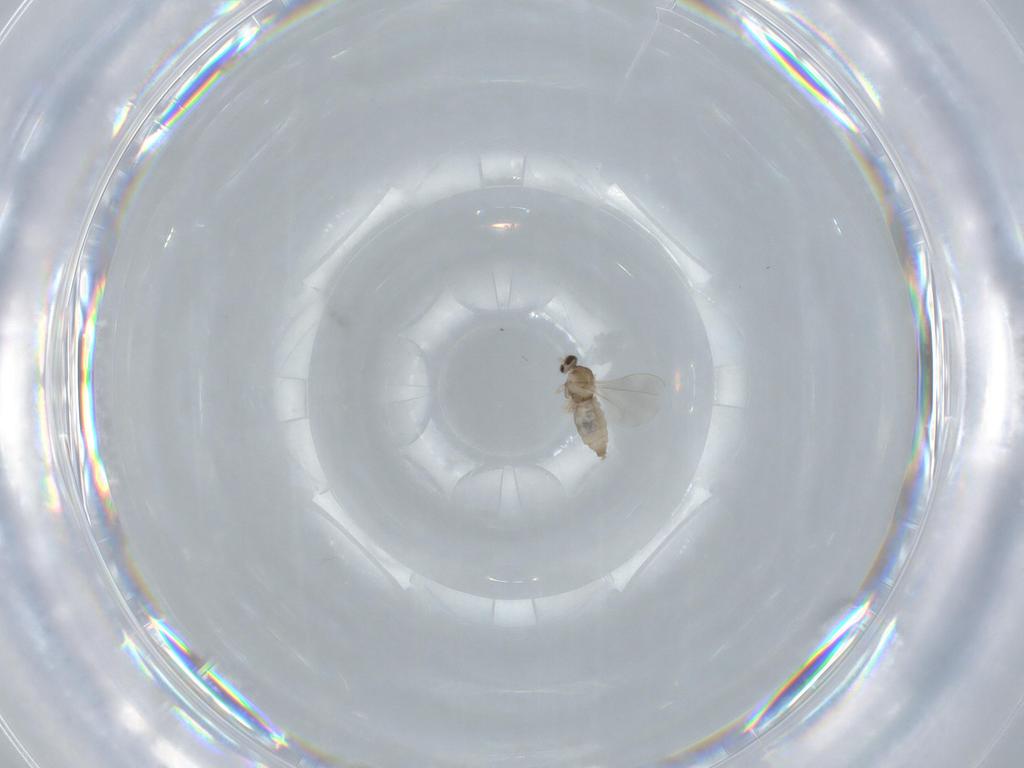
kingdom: Animalia
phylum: Arthropoda
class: Insecta
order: Diptera
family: Cecidomyiidae
